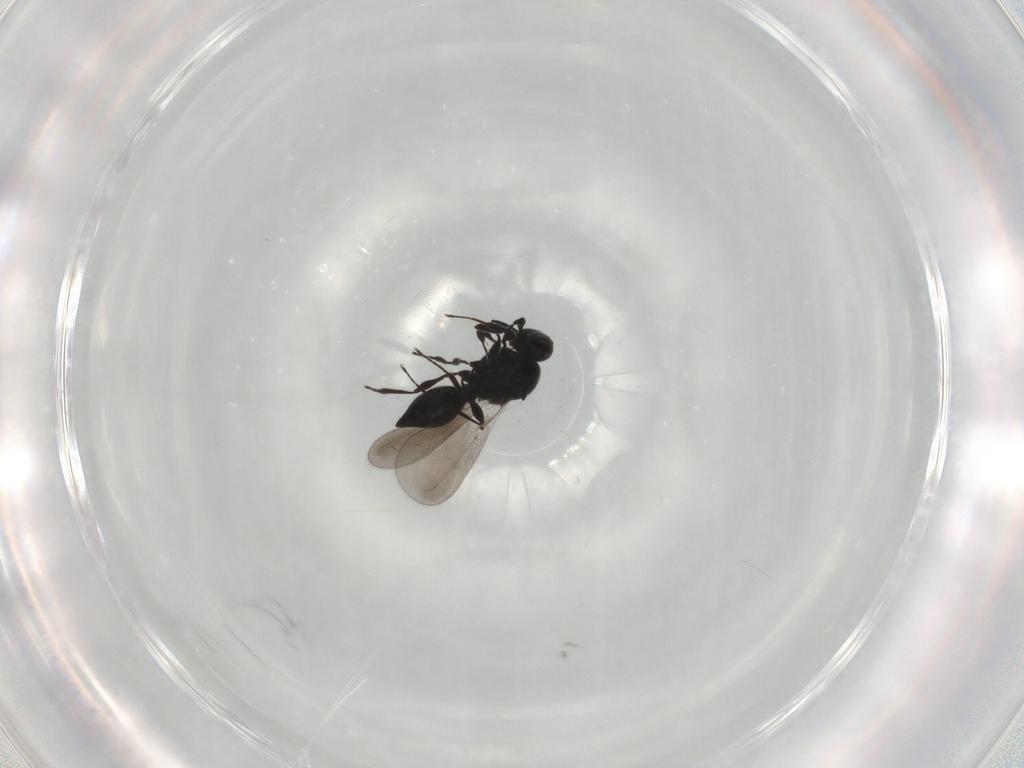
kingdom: Animalia
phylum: Arthropoda
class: Insecta
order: Hymenoptera
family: Platygastridae
